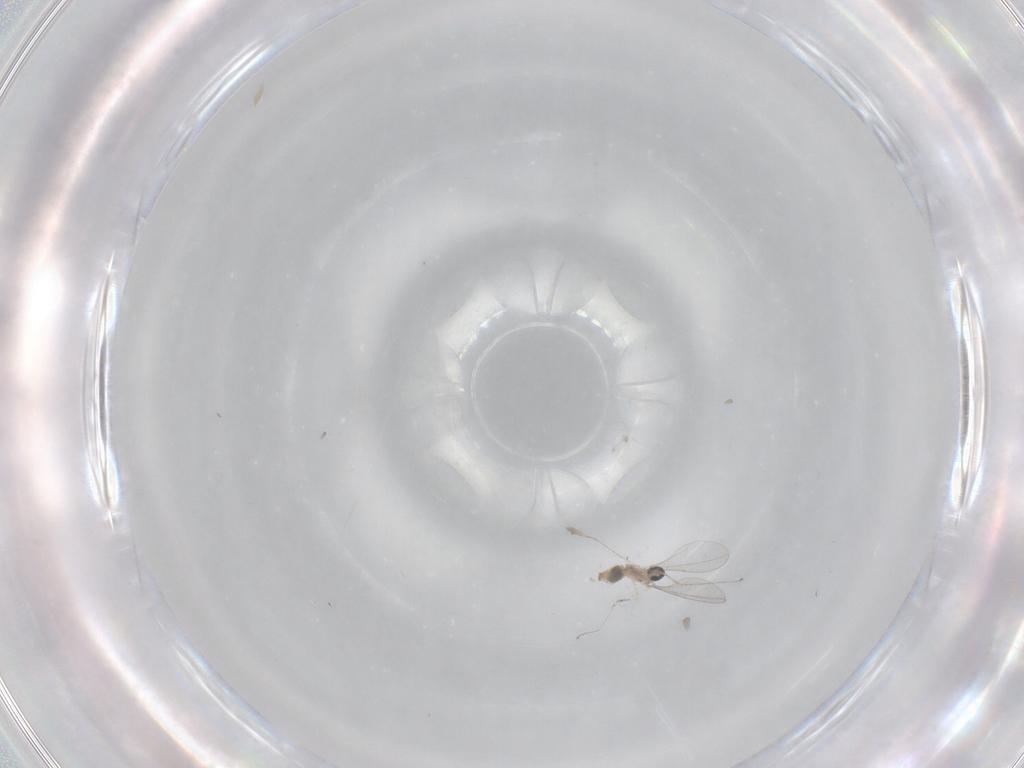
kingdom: Animalia
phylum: Arthropoda
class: Insecta
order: Diptera
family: Cecidomyiidae
